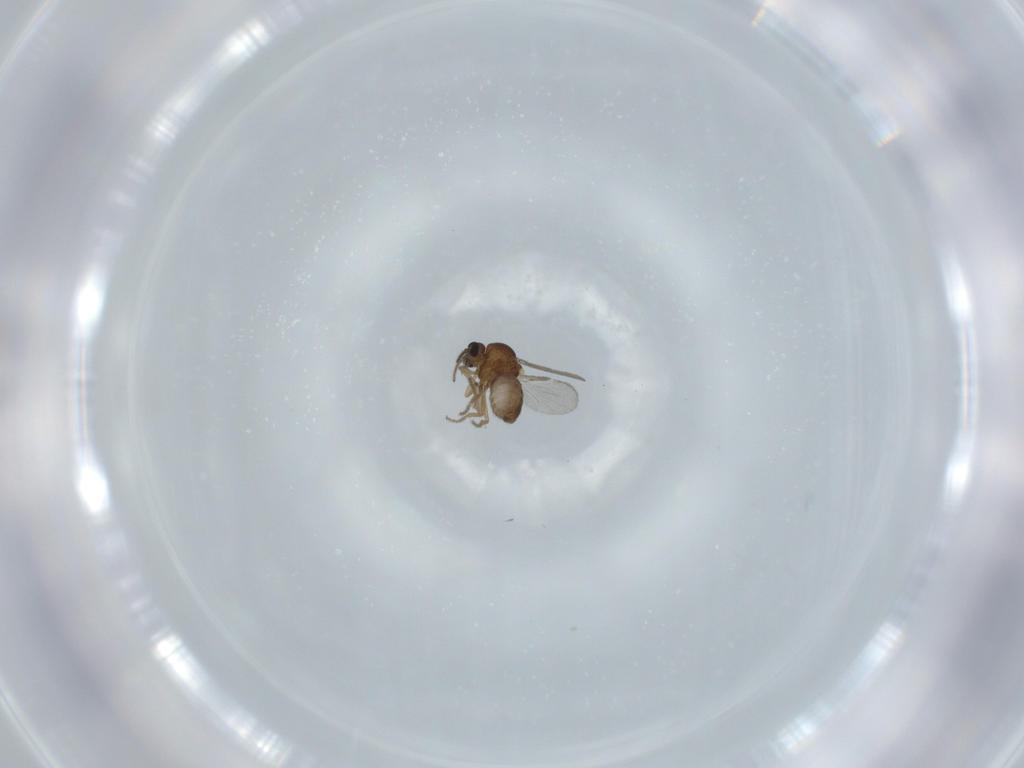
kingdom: Animalia
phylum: Arthropoda
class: Insecta
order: Diptera
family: Ceratopogonidae
